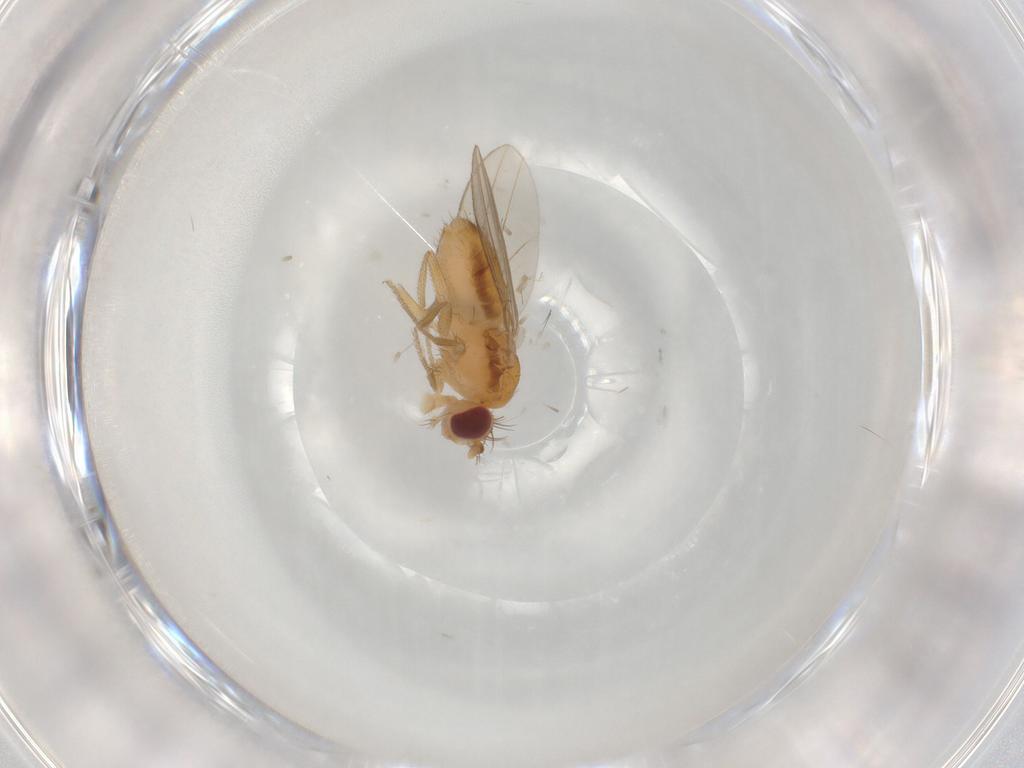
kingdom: Animalia
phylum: Arthropoda
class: Insecta
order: Diptera
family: Drosophilidae
